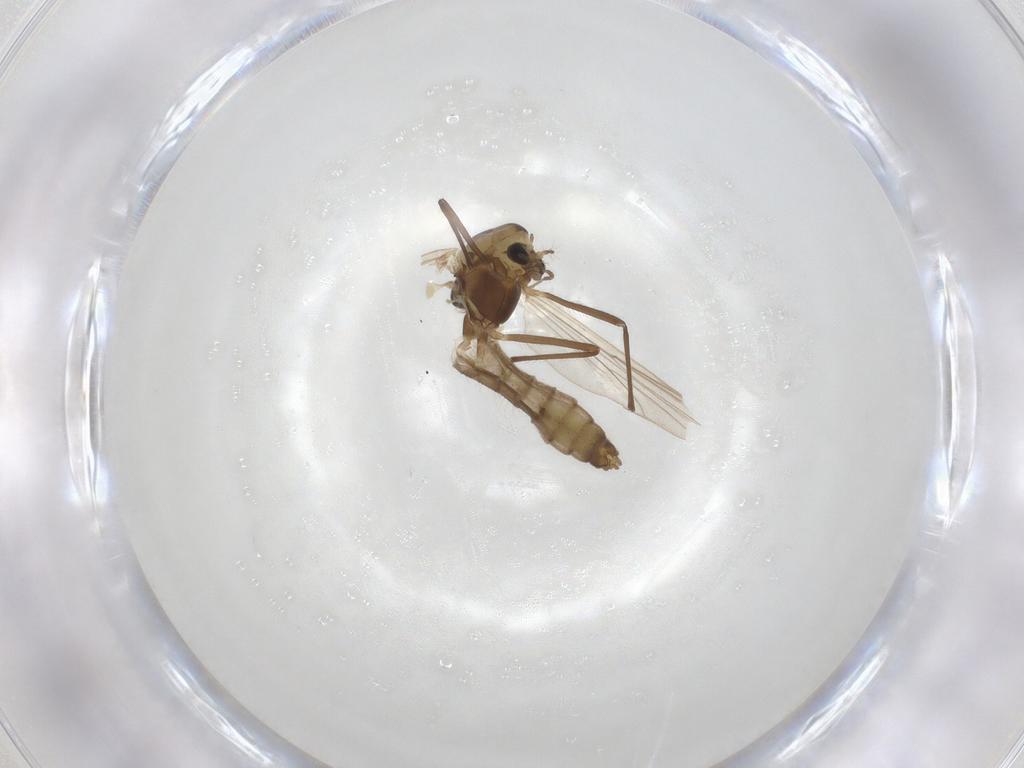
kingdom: Animalia
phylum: Arthropoda
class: Insecta
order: Diptera
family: Chironomidae
